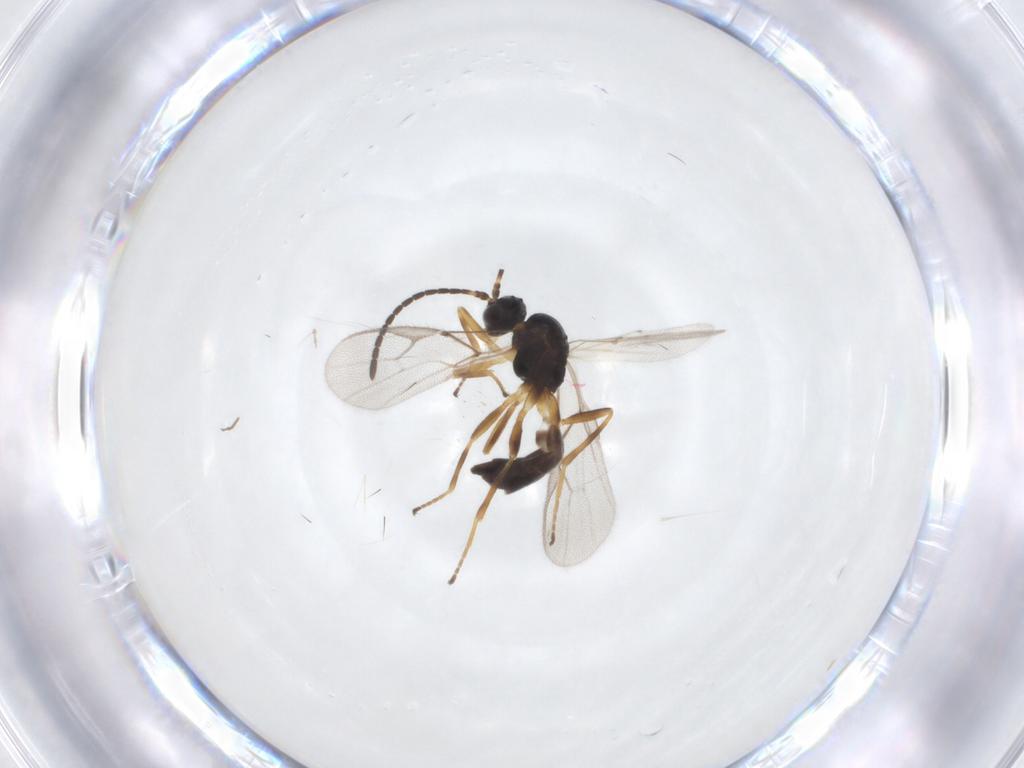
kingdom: Animalia
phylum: Arthropoda
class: Insecta
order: Hymenoptera
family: Braconidae
